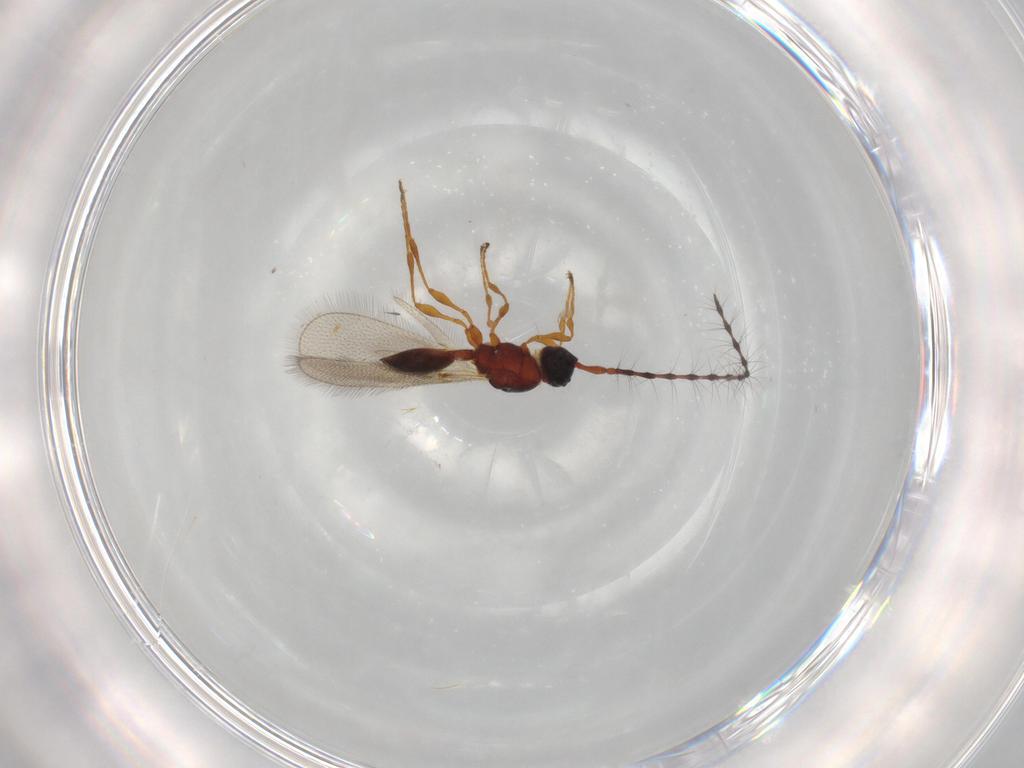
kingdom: Animalia
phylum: Arthropoda
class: Insecta
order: Hymenoptera
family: Diapriidae
